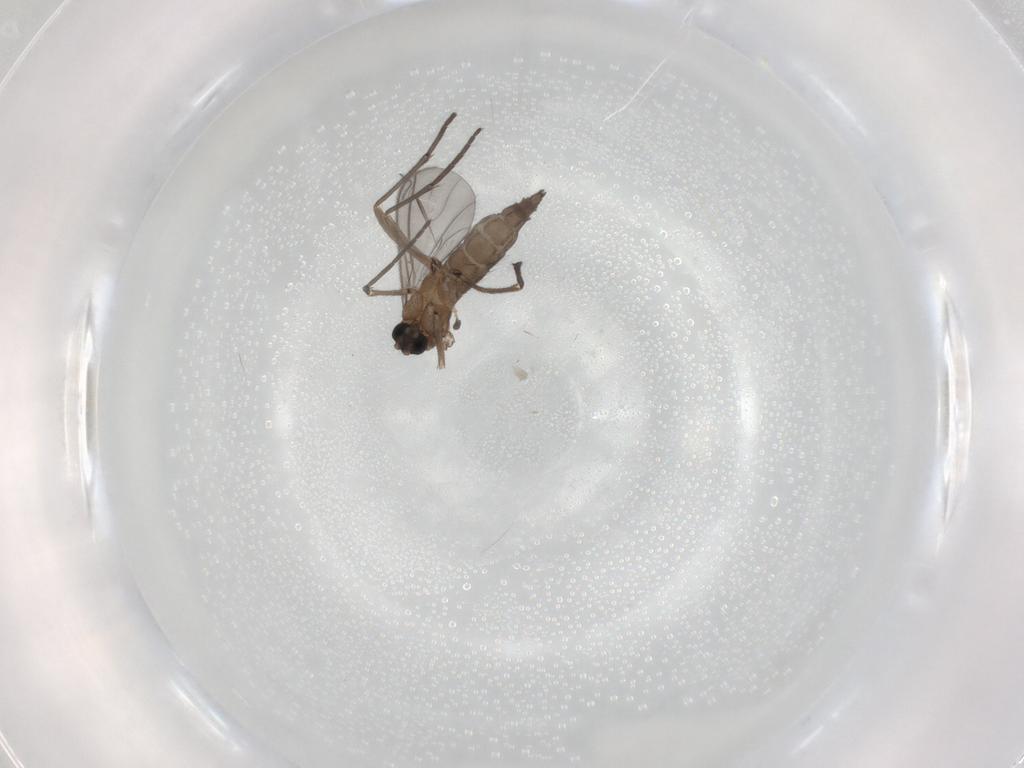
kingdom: Animalia
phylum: Arthropoda
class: Insecta
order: Diptera
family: Sciaridae
